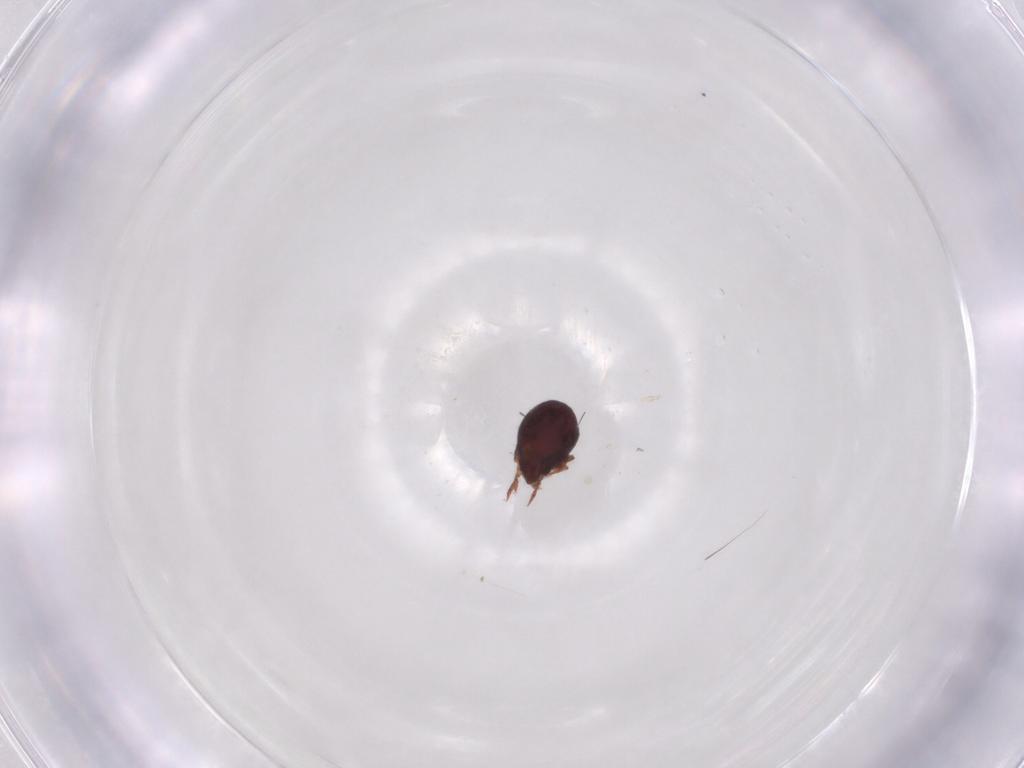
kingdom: Animalia
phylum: Arthropoda
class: Arachnida
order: Sarcoptiformes
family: Humerobatidae
